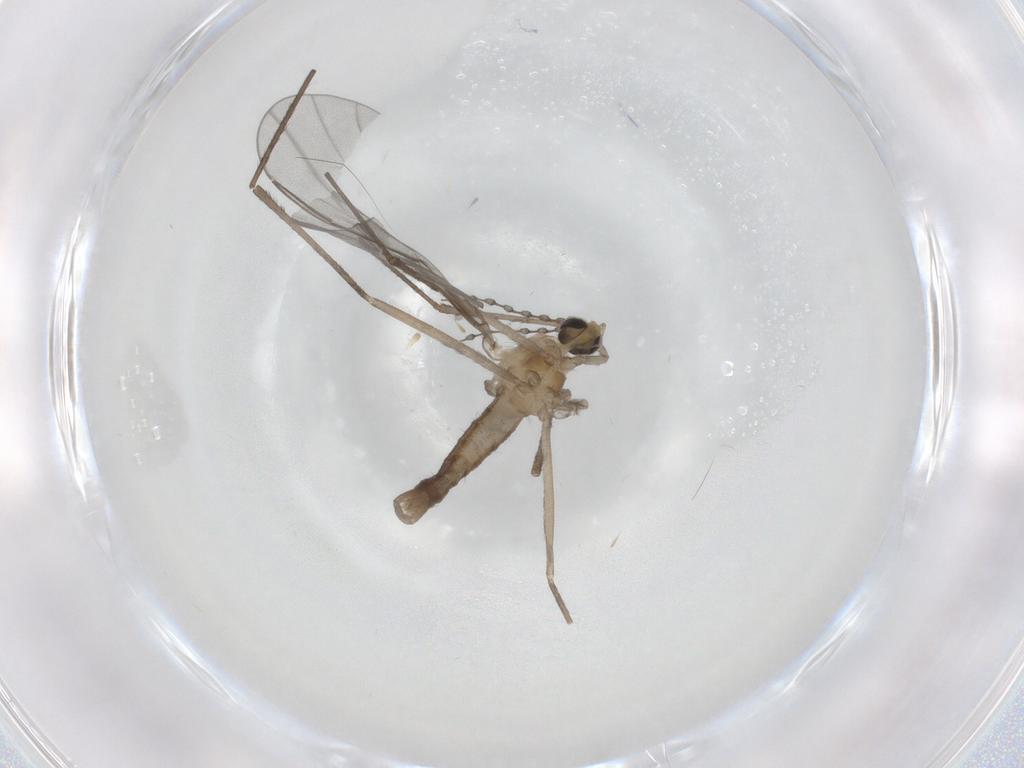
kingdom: Animalia
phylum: Arthropoda
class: Insecta
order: Diptera
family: Cecidomyiidae
